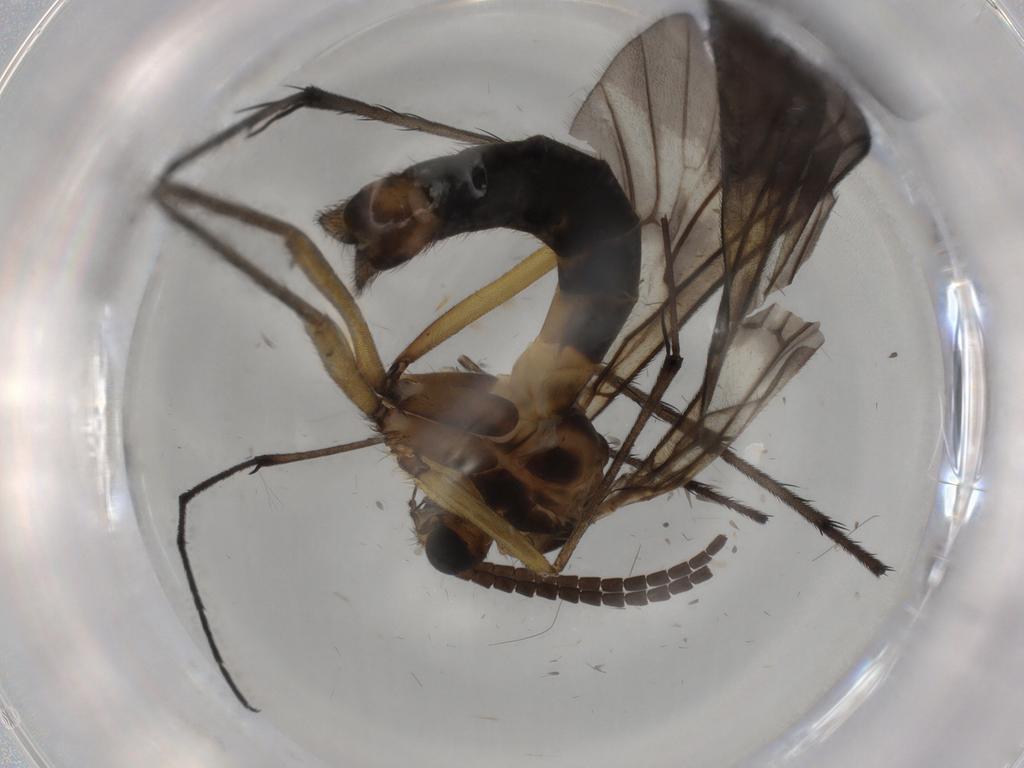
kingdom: Animalia
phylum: Arthropoda
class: Insecta
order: Diptera
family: Ditomyiidae
